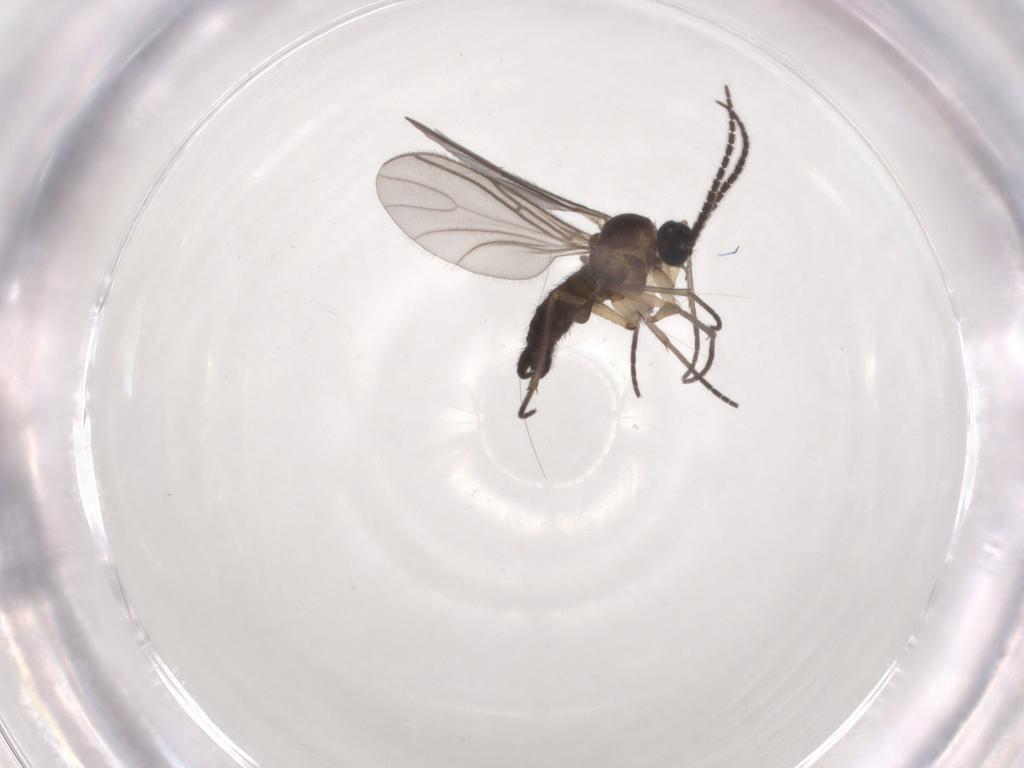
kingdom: Animalia
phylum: Arthropoda
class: Insecta
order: Diptera
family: Sciaridae
